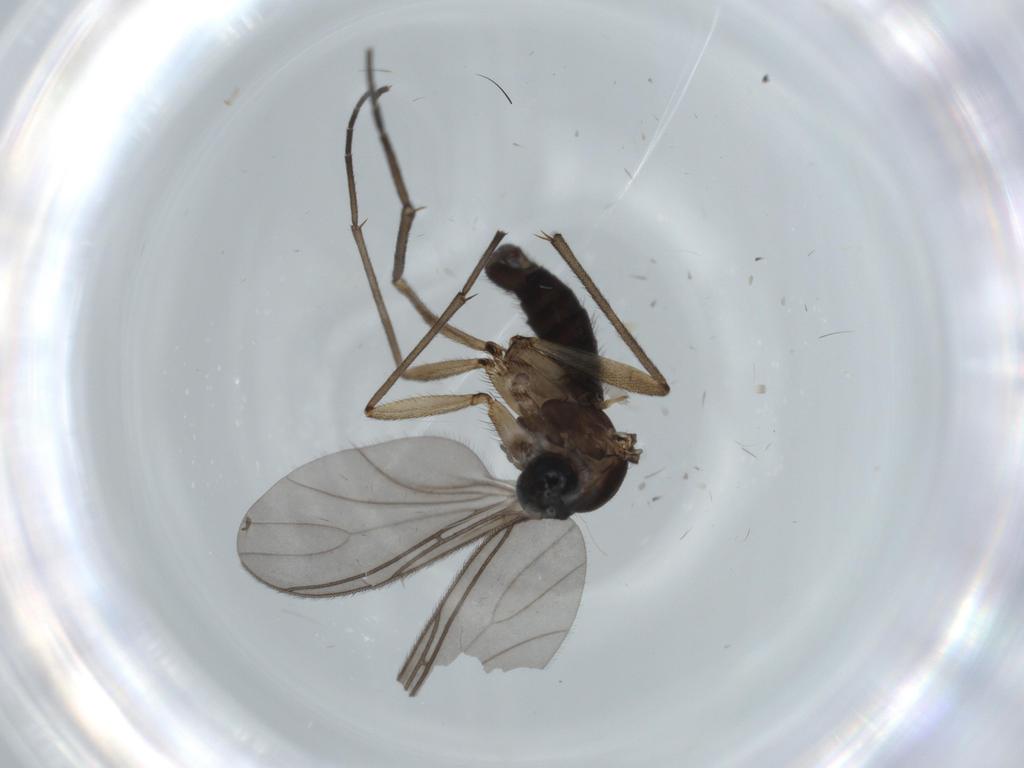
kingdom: Animalia
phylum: Arthropoda
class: Insecta
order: Diptera
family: Sciaridae
